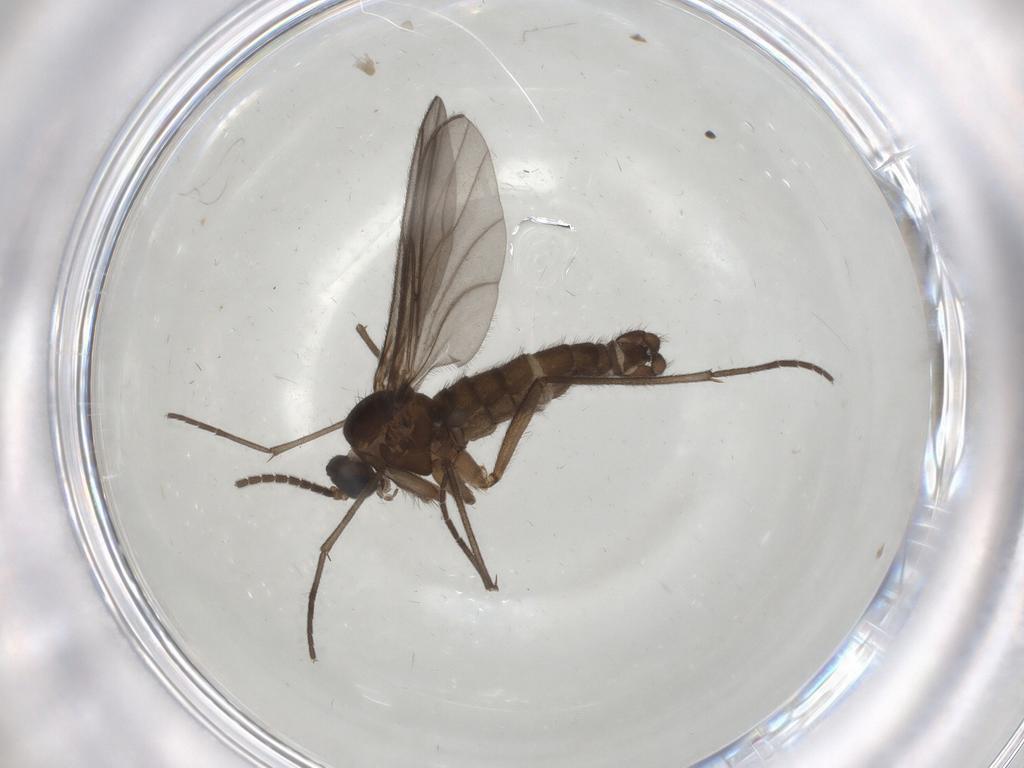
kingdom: Animalia
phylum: Arthropoda
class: Insecta
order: Diptera
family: Sciaridae
